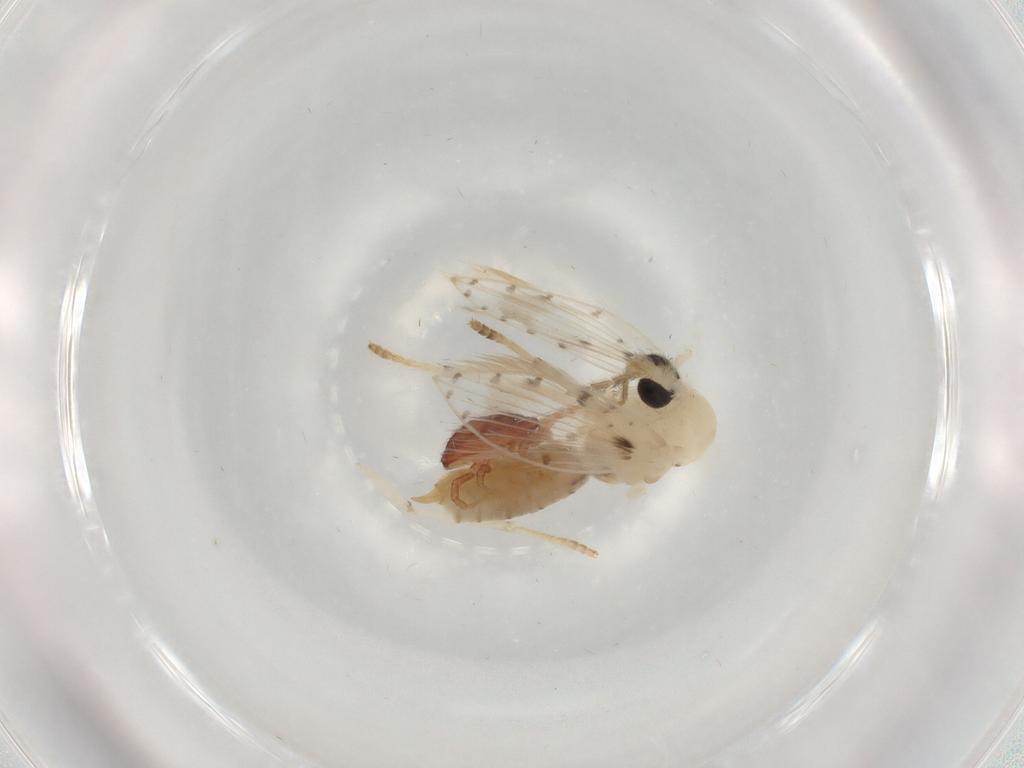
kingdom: Animalia
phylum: Arthropoda
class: Insecta
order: Diptera
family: Psychodidae
